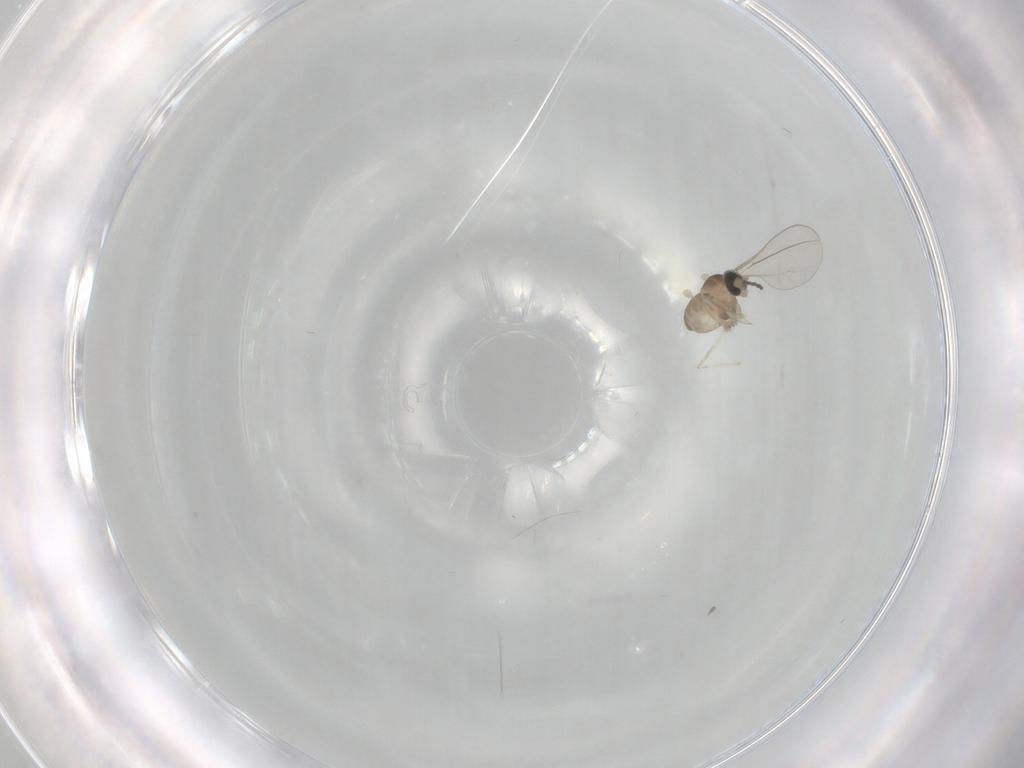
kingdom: Animalia
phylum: Arthropoda
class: Insecta
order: Diptera
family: Cecidomyiidae
